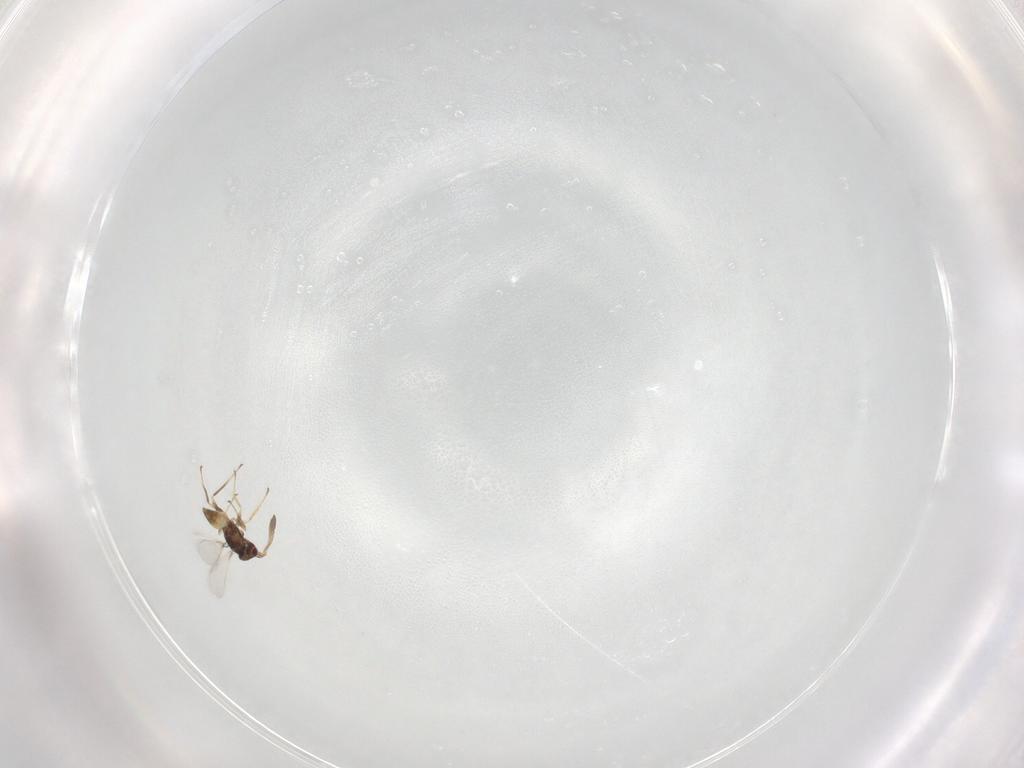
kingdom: Animalia
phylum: Arthropoda
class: Insecta
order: Hymenoptera
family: Mymaridae
